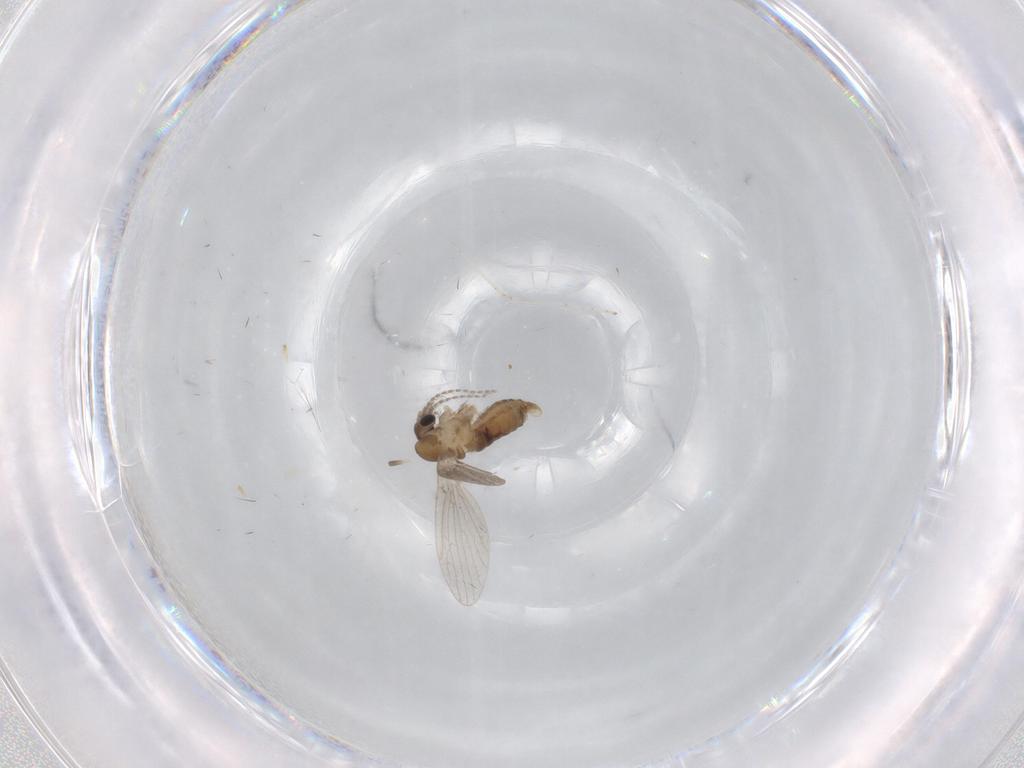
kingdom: Animalia
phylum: Arthropoda
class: Insecta
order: Diptera
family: Cecidomyiidae
